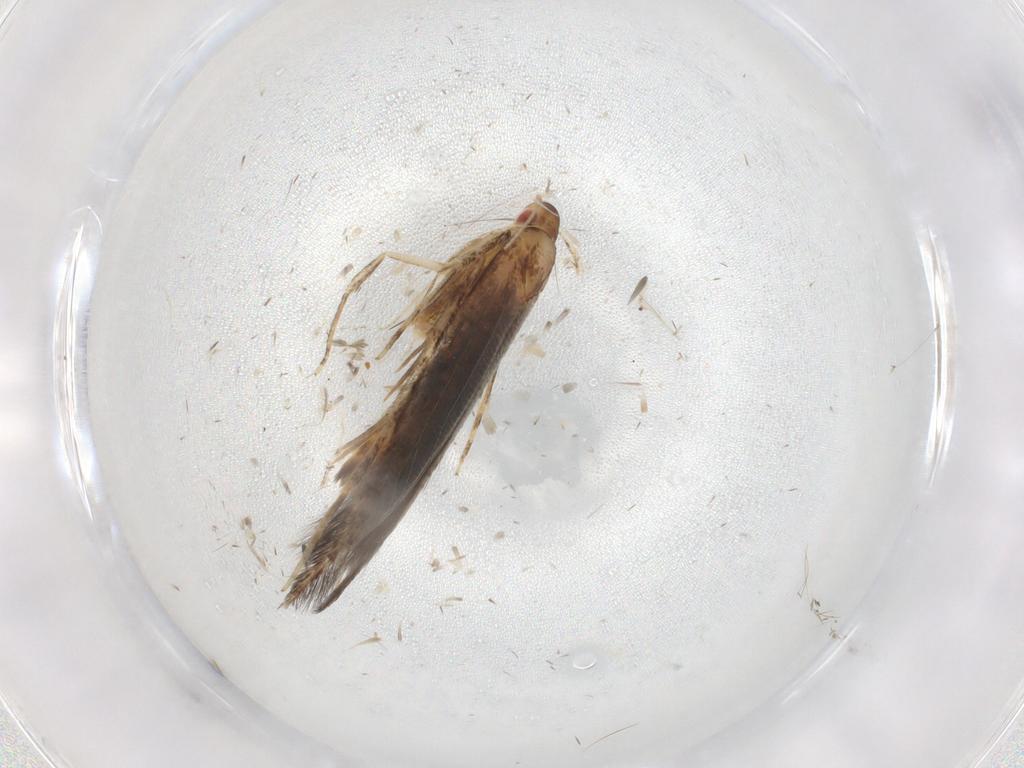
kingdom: Animalia
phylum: Arthropoda
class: Insecta
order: Lepidoptera
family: Cosmopterigidae
